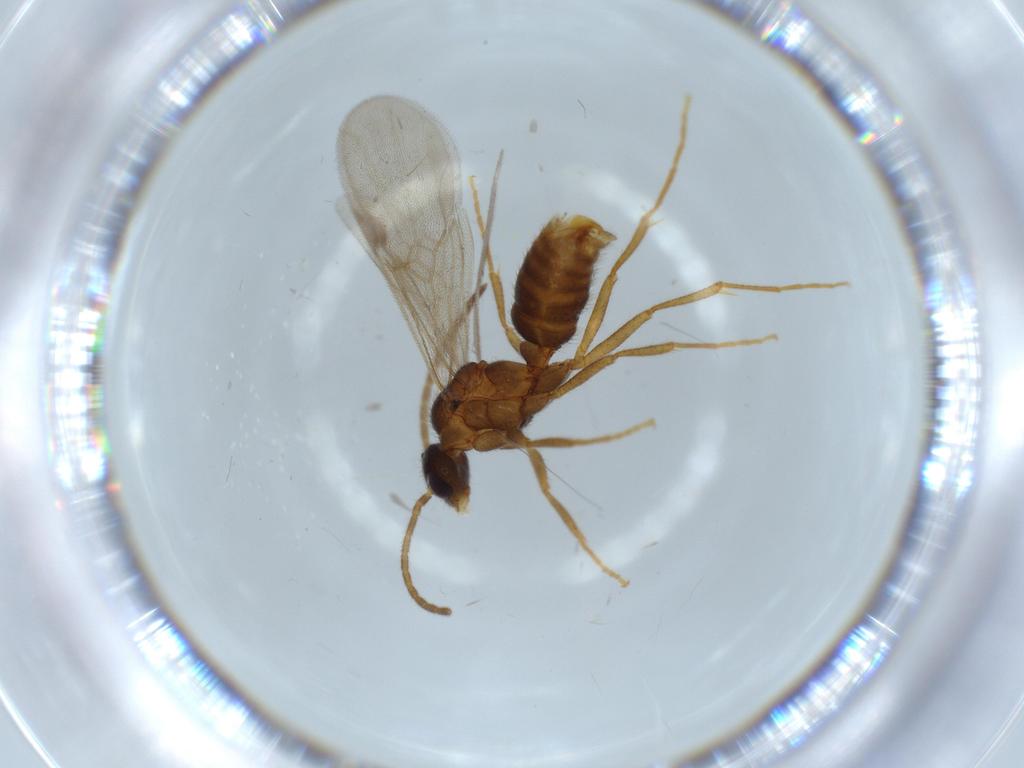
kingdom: Animalia
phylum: Arthropoda
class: Insecta
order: Hymenoptera
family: Formicidae
